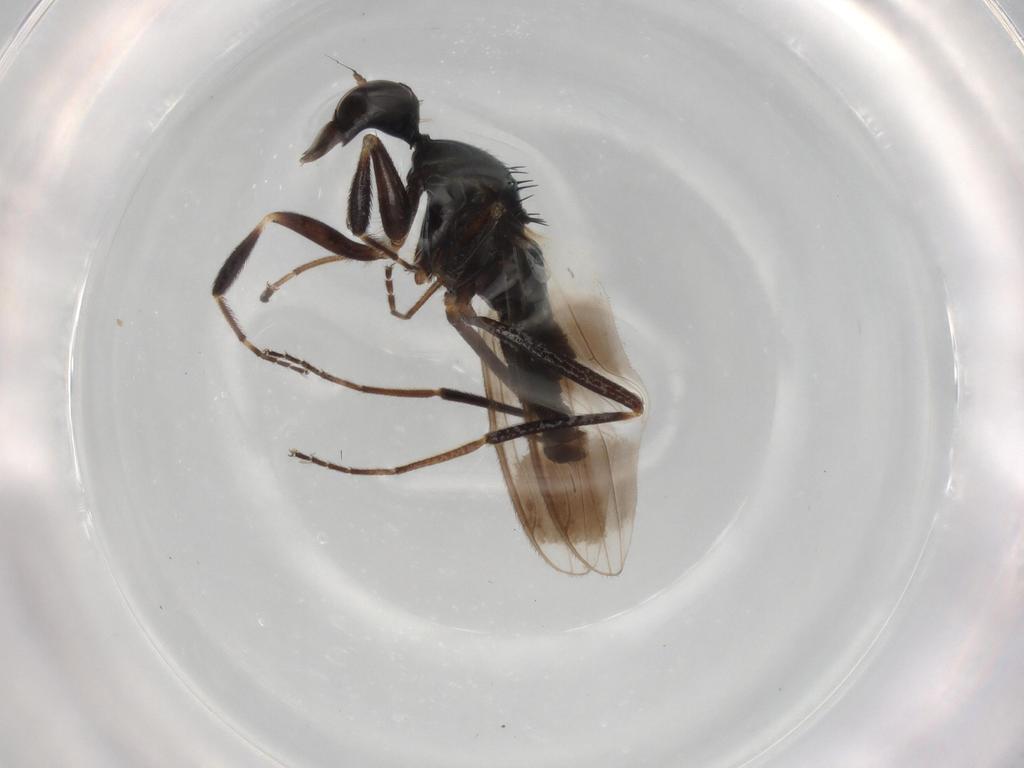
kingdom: Animalia
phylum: Arthropoda
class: Insecta
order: Diptera
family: Hybotidae
